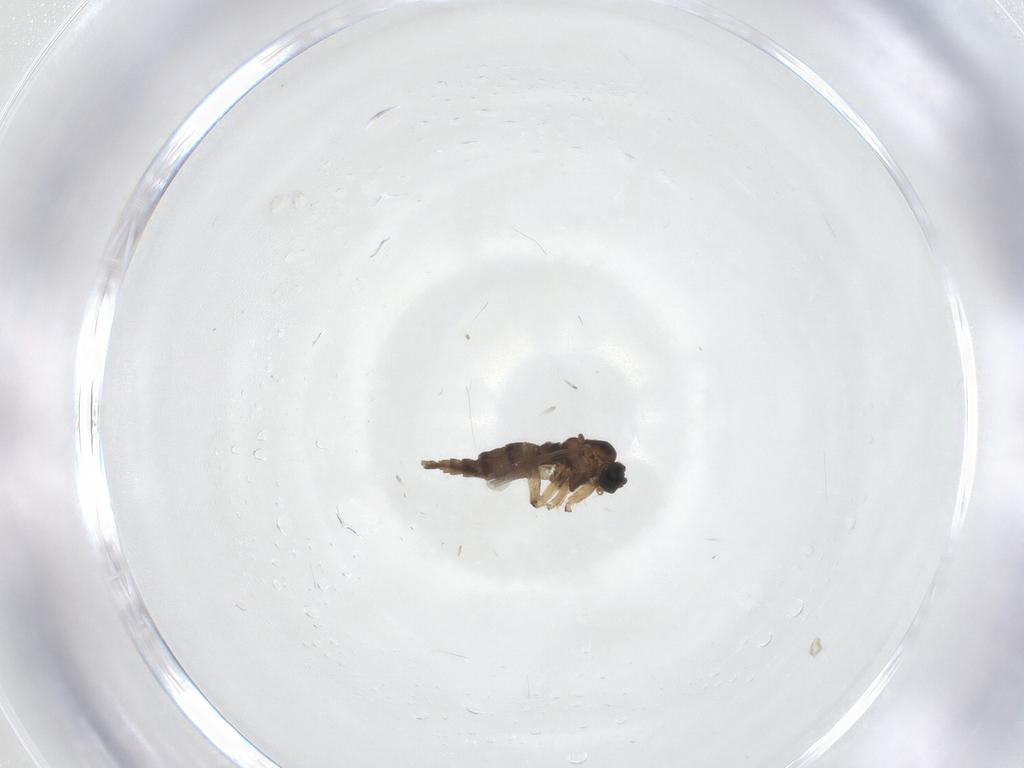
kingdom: Animalia
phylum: Arthropoda
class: Insecta
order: Diptera
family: Sciaridae
